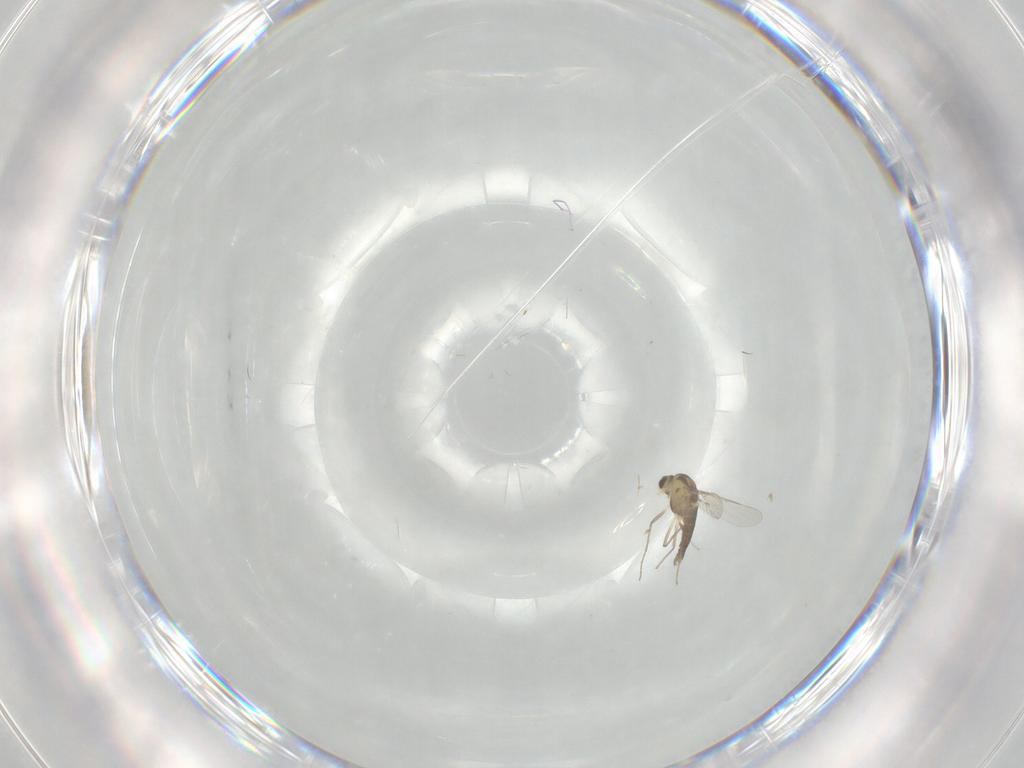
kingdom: Animalia
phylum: Arthropoda
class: Insecta
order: Diptera
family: Chironomidae
